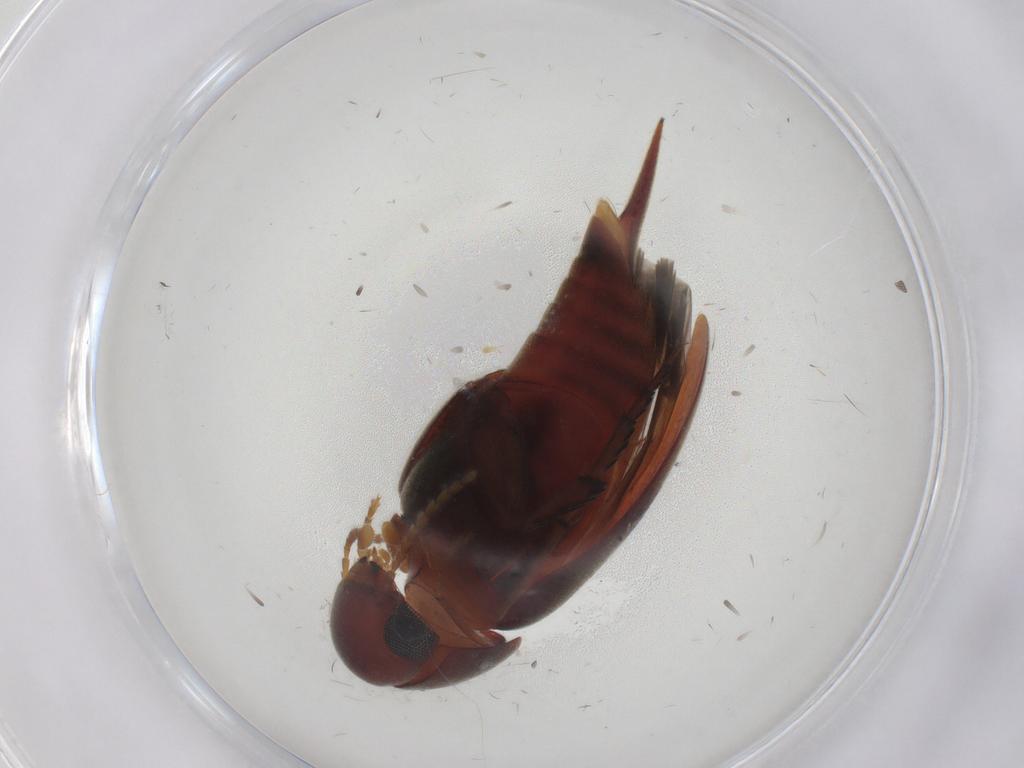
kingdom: Animalia
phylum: Arthropoda
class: Insecta
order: Coleoptera
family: Mordellidae
